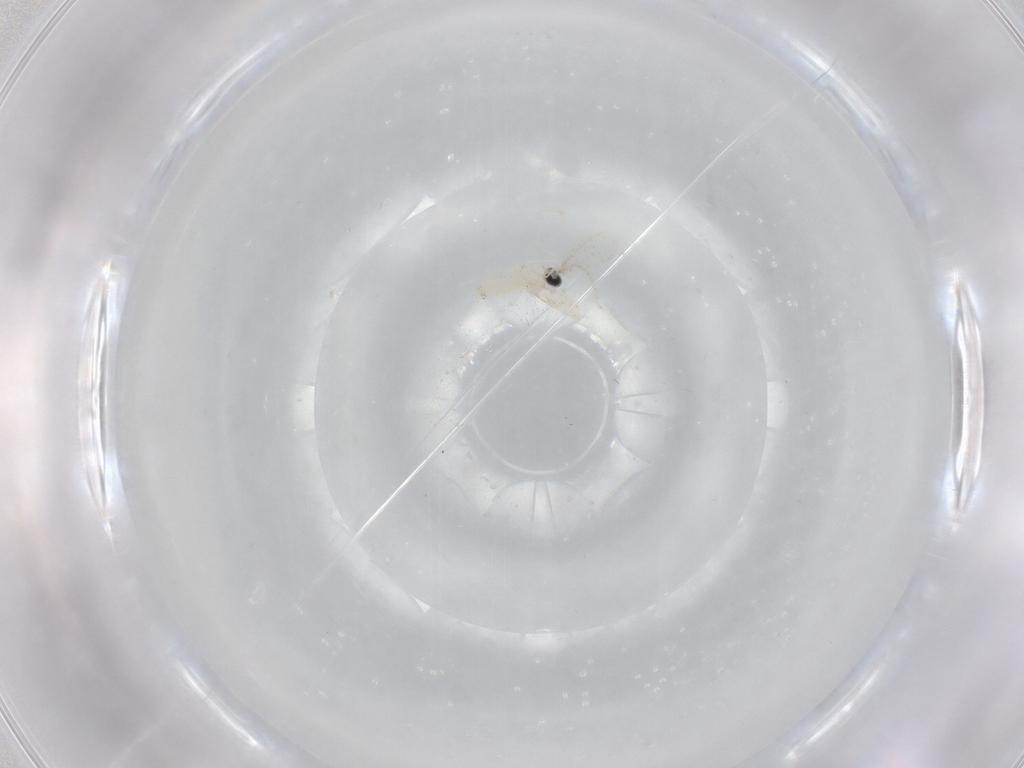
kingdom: Animalia
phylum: Arthropoda
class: Insecta
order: Diptera
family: Cecidomyiidae
